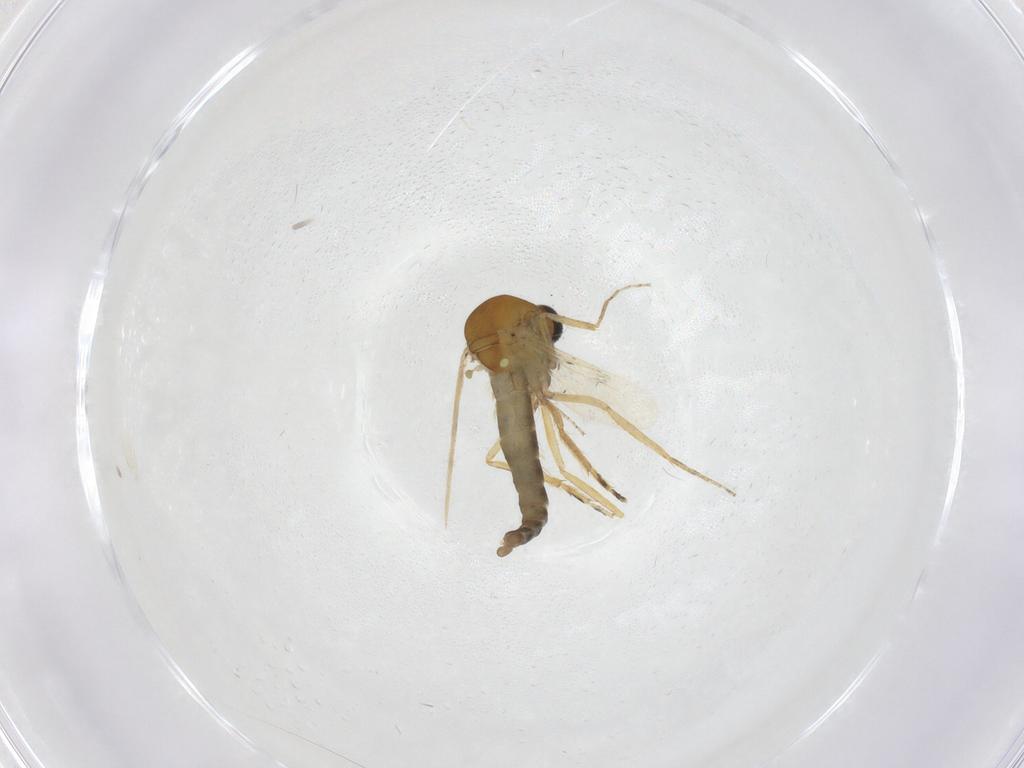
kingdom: Animalia
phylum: Arthropoda
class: Insecta
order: Diptera
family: Ceratopogonidae
